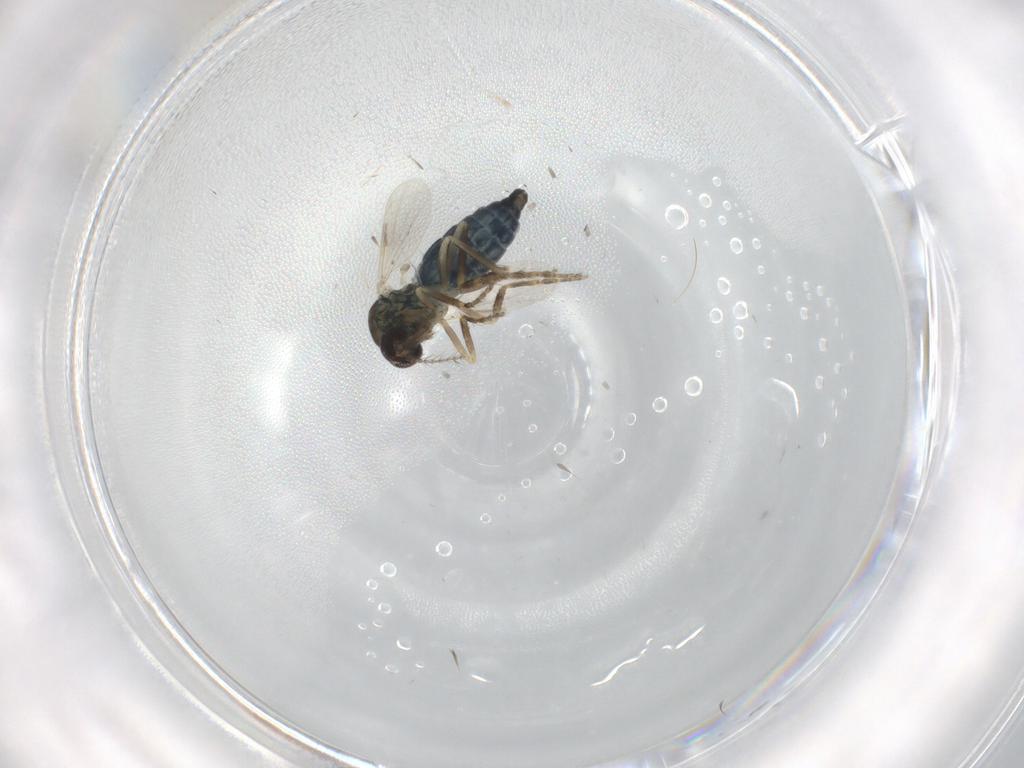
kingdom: Animalia
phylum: Arthropoda
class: Insecta
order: Diptera
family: Ceratopogonidae
